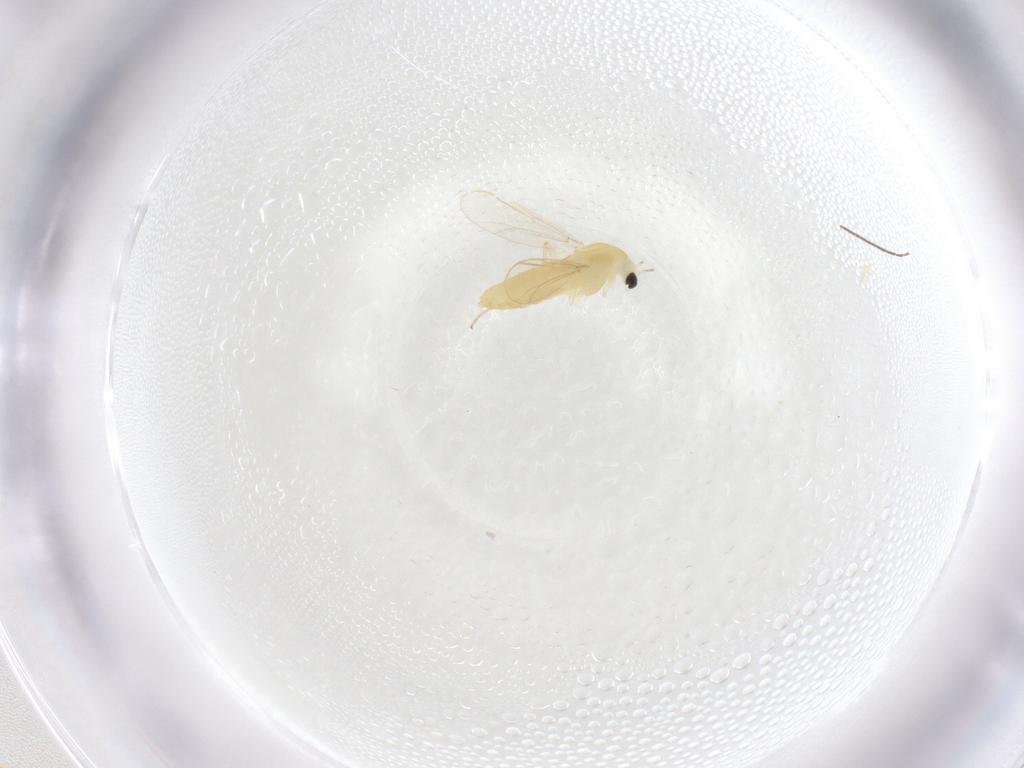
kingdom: Animalia
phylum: Arthropoda
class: Insecta
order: Diptera
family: Chironomidae
